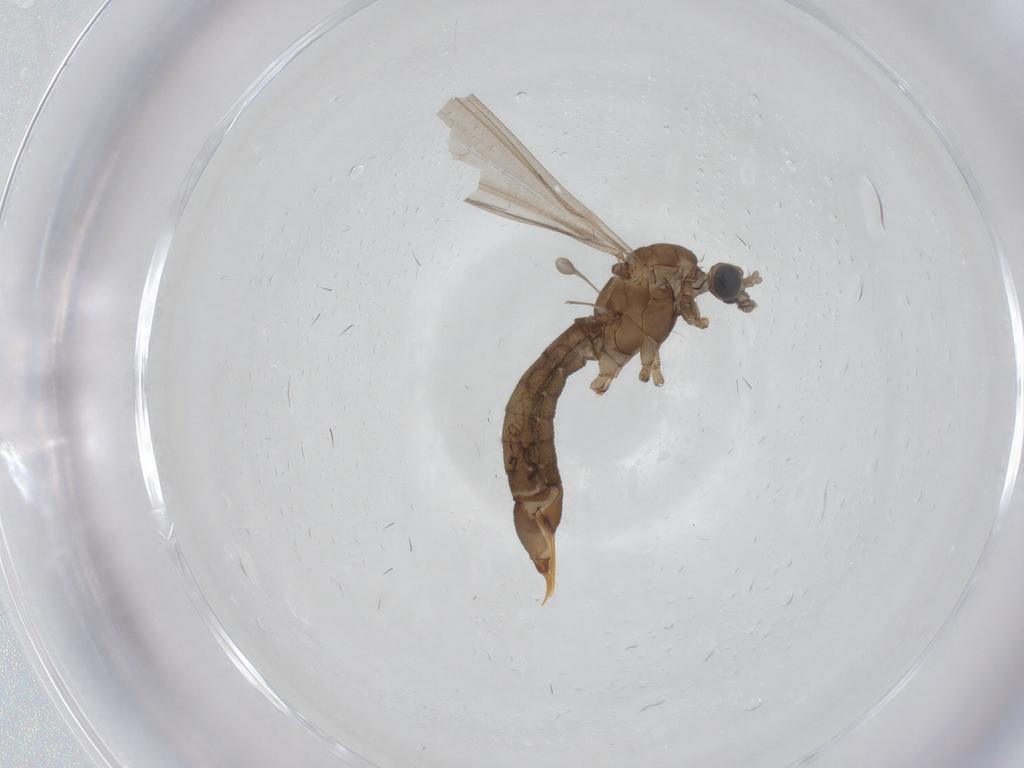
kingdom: Animalia
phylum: Arthropoda
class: Insecta
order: Diptera
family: Limoniidae
